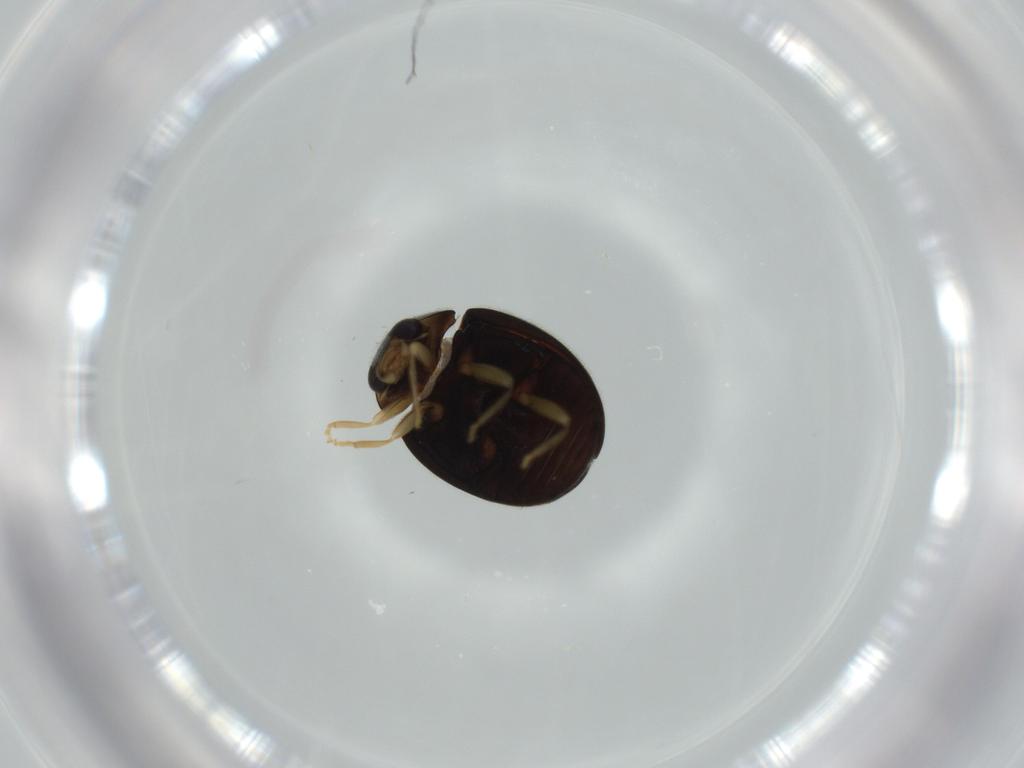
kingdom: Animalia
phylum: Arthropoda
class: Insecta
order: Coleoptera
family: Coccinellidae
